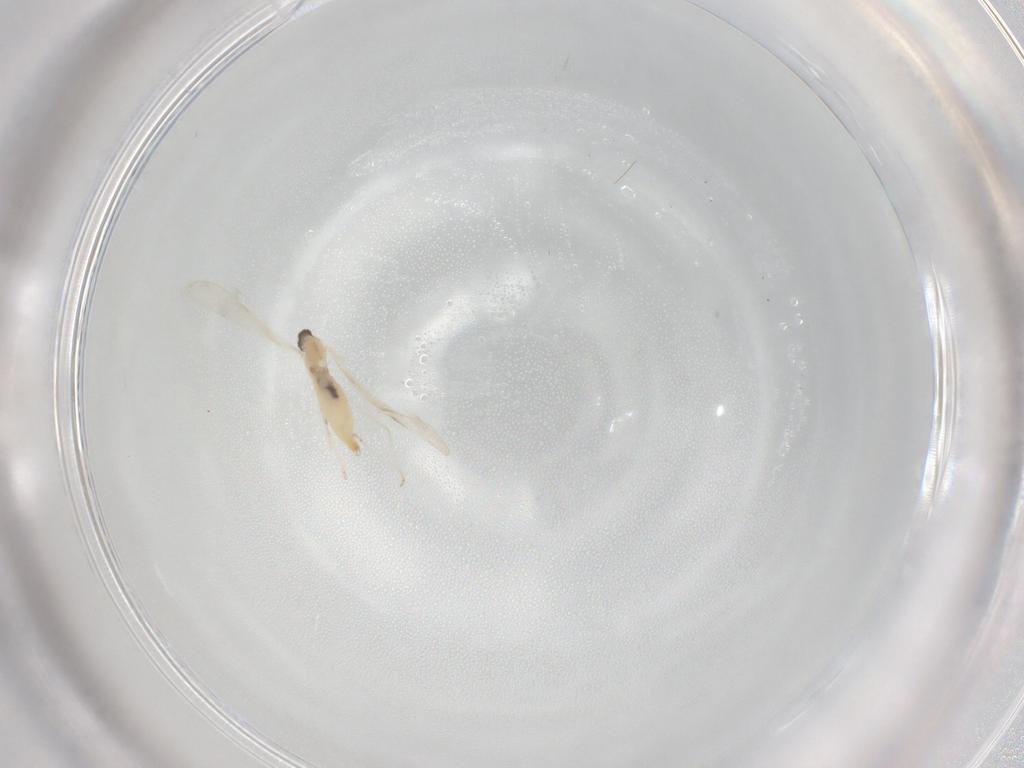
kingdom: Animalia
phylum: Arthropoda
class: Insecta
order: Diptera
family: Cecidomyiidae
